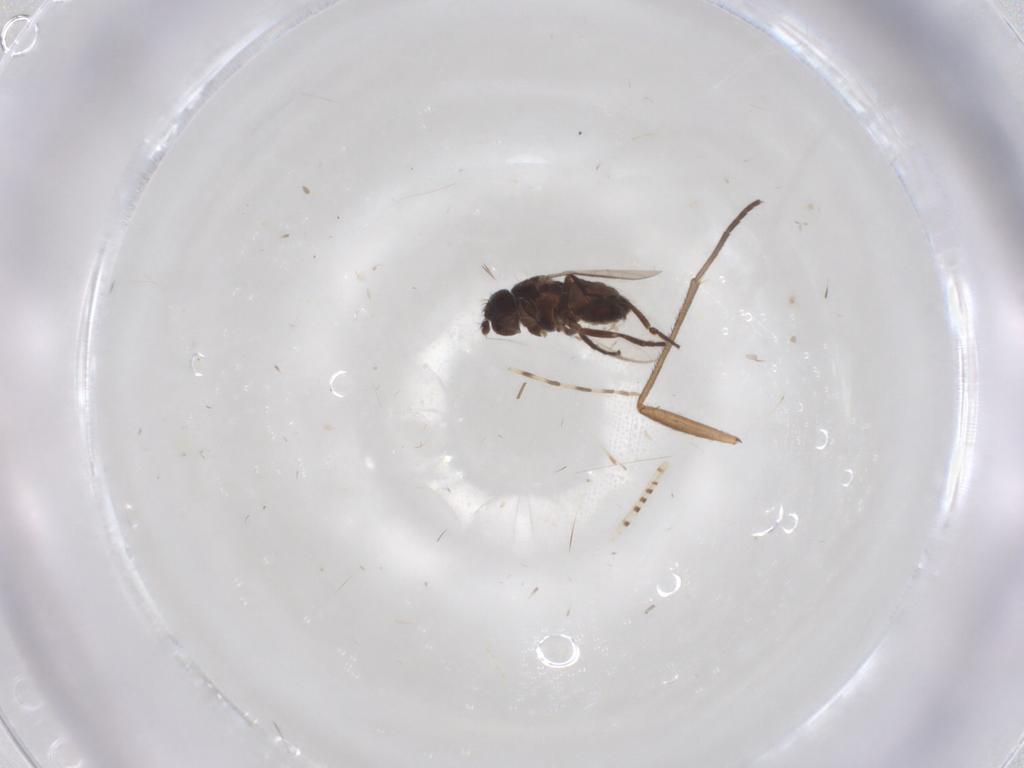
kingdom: Animalia
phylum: Arthropoda
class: Insecta
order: Diptera
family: Sphaeroceridae
